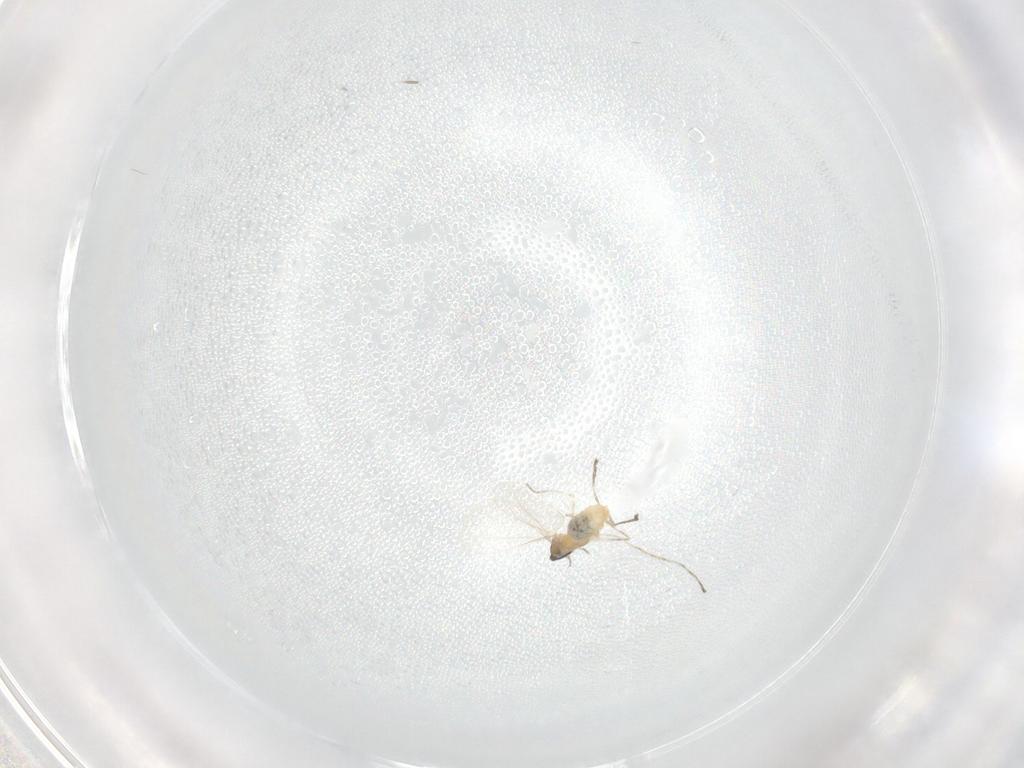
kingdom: Animalia
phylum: Arthropoda
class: Insecta
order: Diptera
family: Cecidomyiidae
